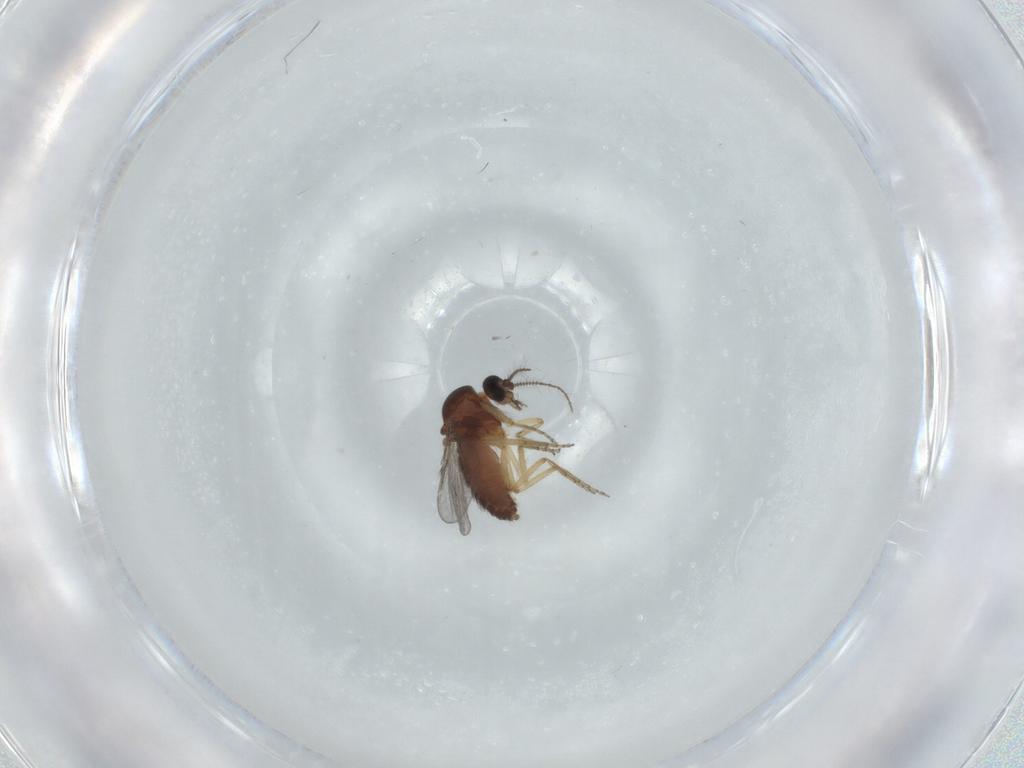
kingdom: Animalia
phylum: Arthropoda
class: Insecta
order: Diptera
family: Ceratopogonidae
